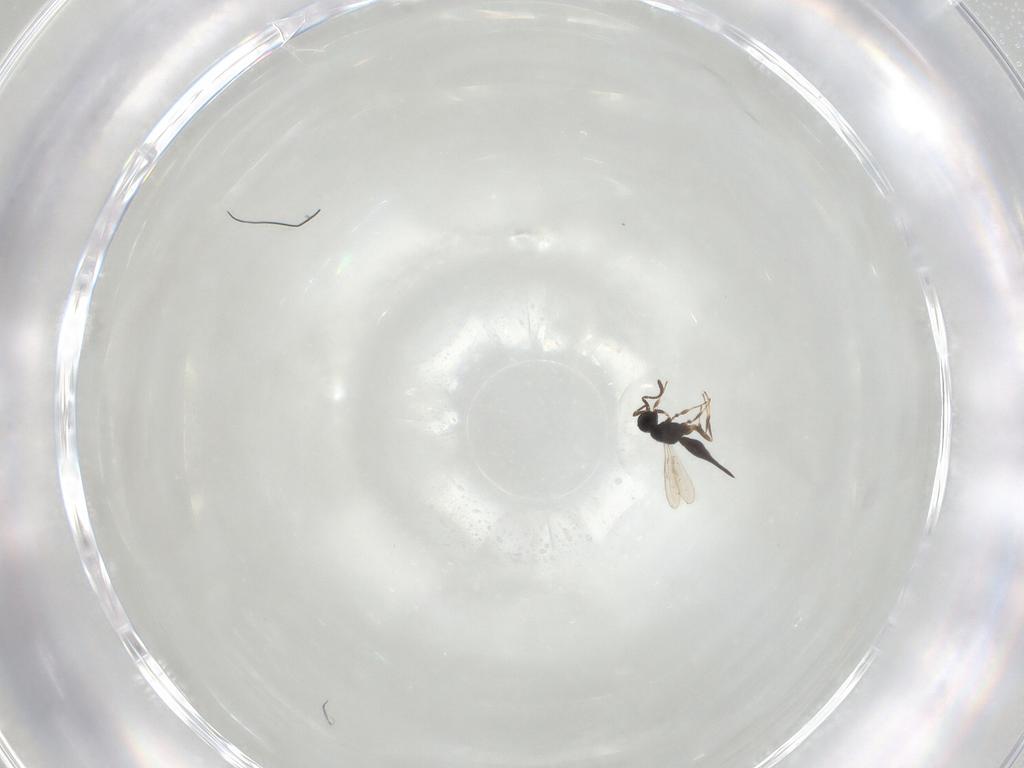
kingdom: Animalia
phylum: Arthropoda
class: Insecta
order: Hymenoptera
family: Scelionidae
